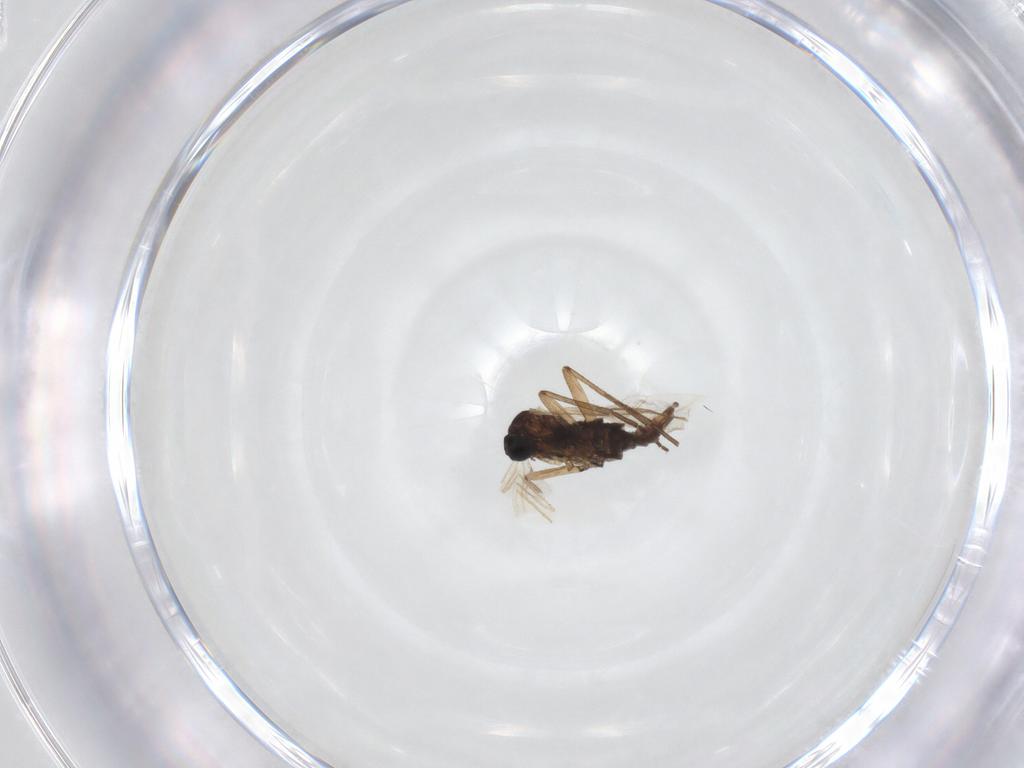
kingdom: Animalia
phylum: Arthropoda
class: Insecta
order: Diptera
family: Sciaridae
